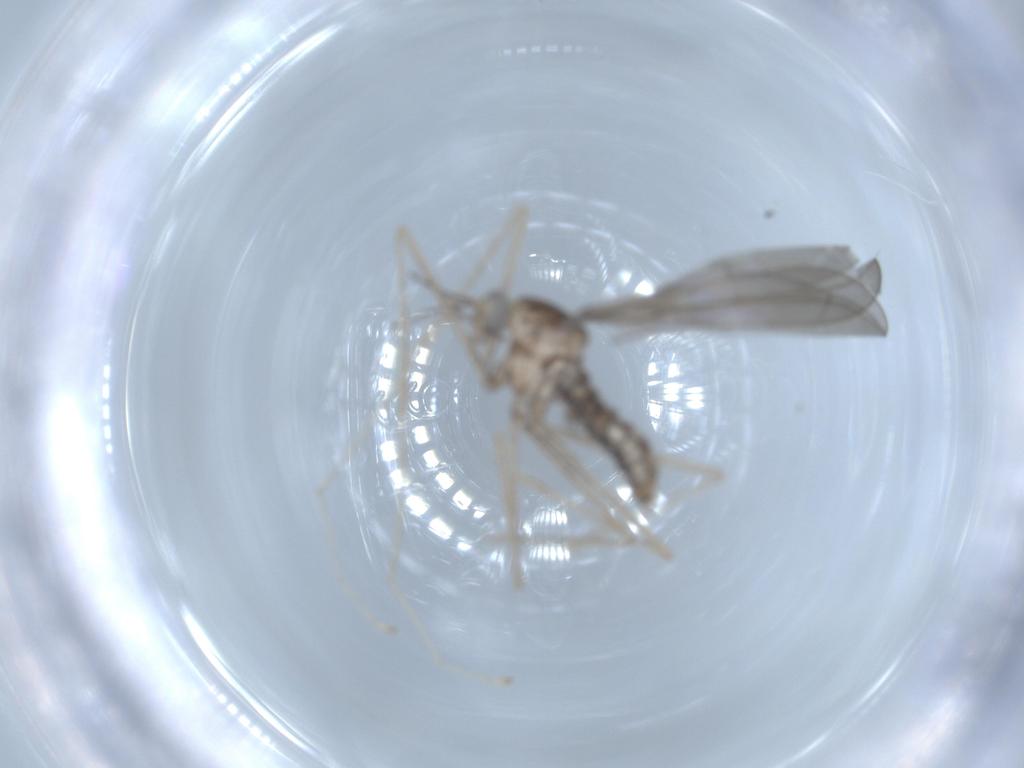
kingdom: Animalia
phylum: Arthropoda
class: Insecta
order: Diptera
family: Cecidomyiidae
